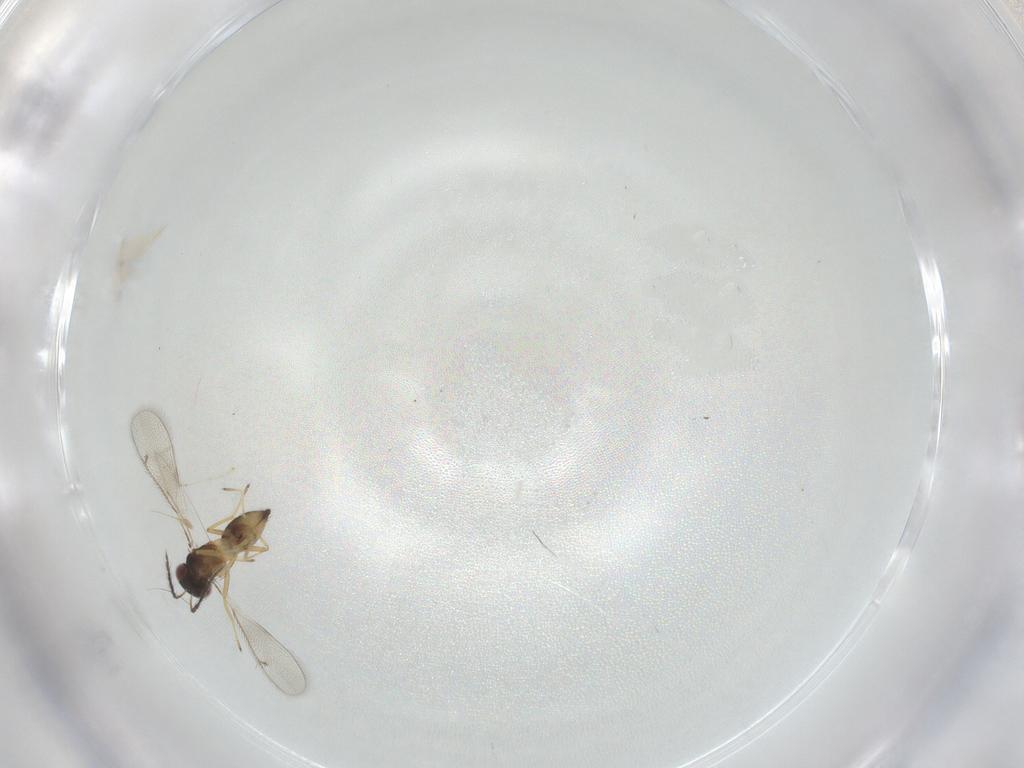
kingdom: Animalia
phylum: Arthropoda
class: Insecta
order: Hymenoptera
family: Eulophidae
